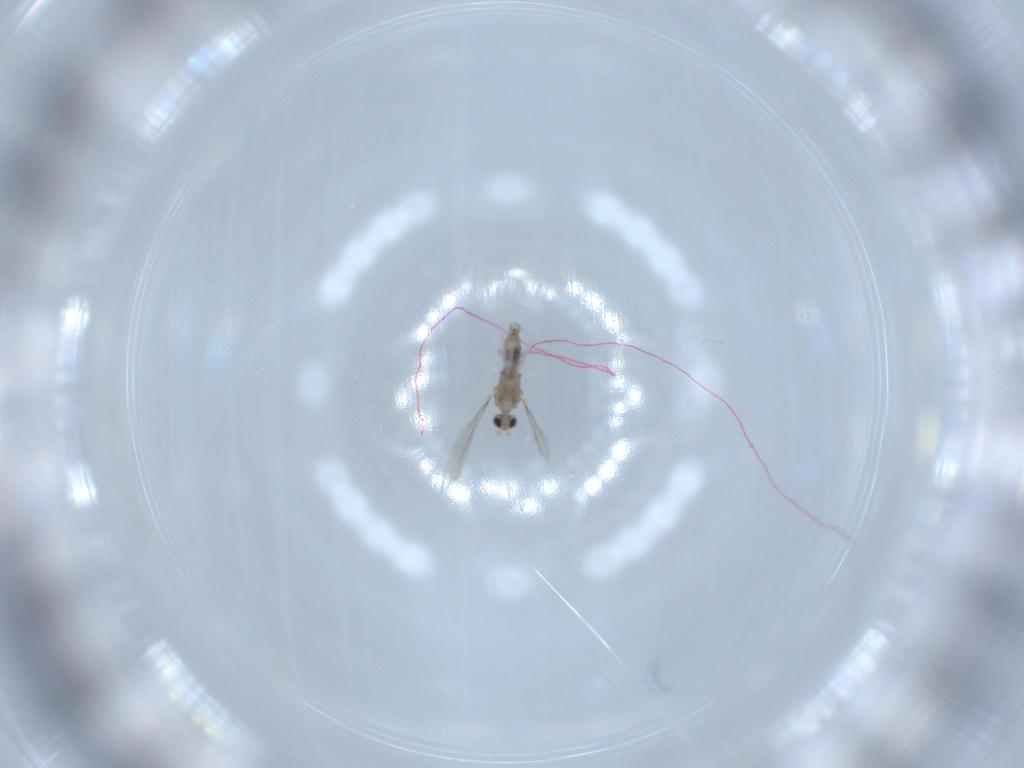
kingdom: Animalia
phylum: Arthropoda
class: Insecta
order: Diptera
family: Cecidomyiidae
